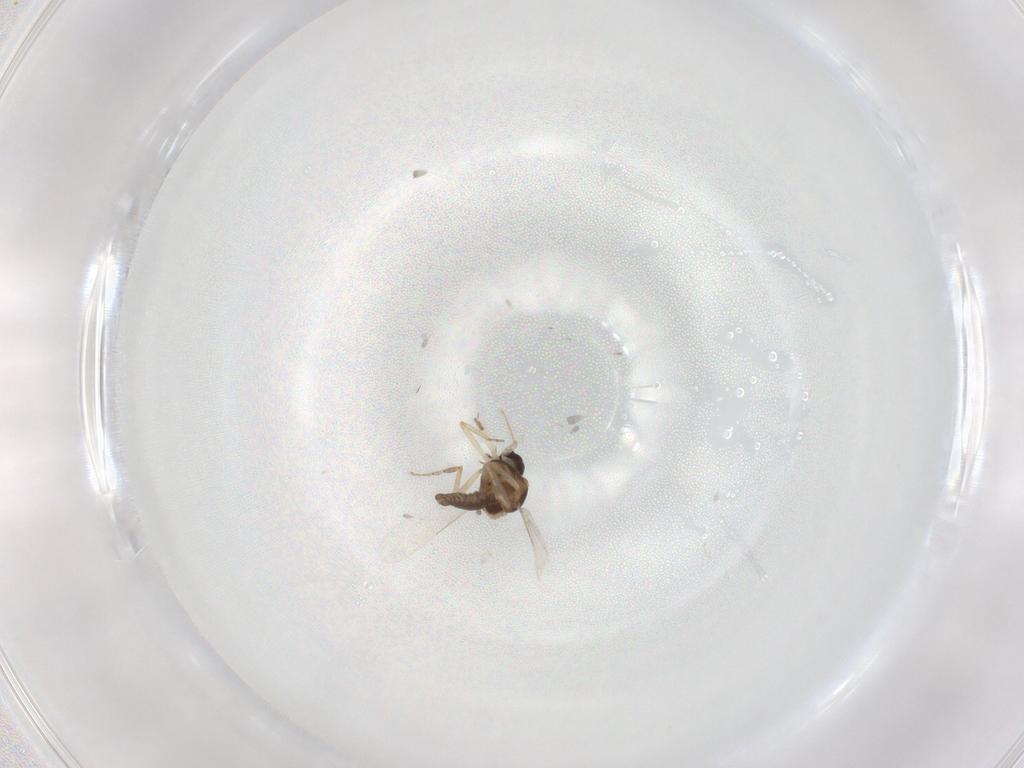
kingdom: Animalia
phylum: Arthropoda
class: Insecta
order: Diptera
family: Ceratopogonidae
